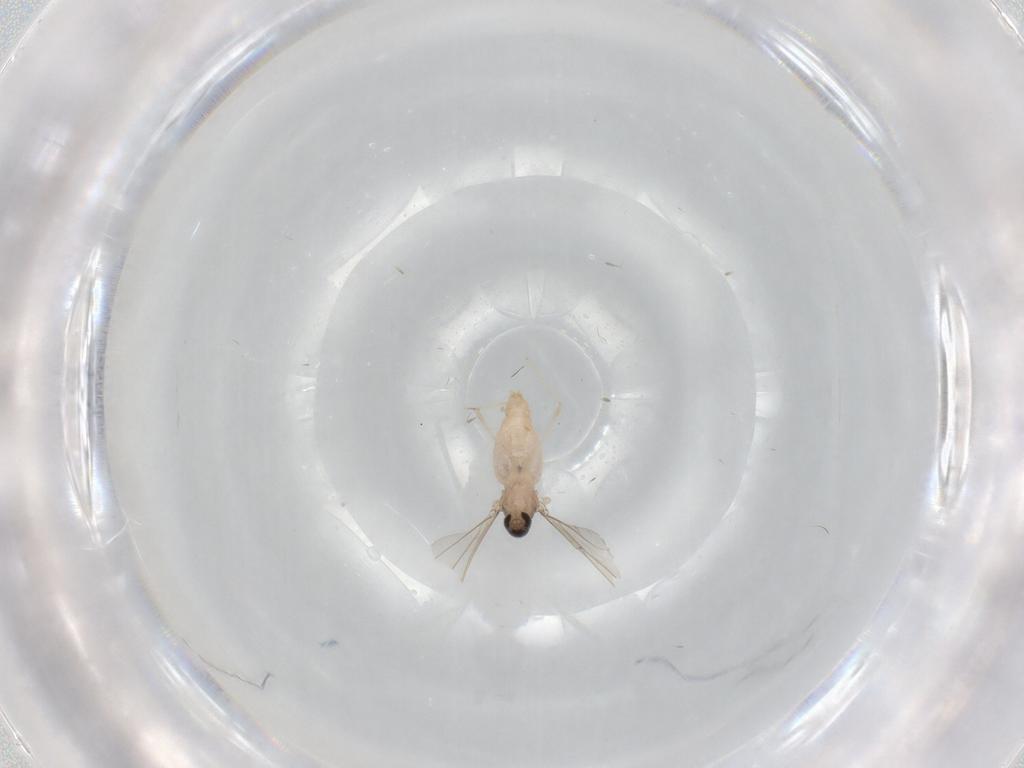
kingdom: Animalia
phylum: Arthropoda
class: Insecta
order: Diptera
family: Cecidomyiidae
